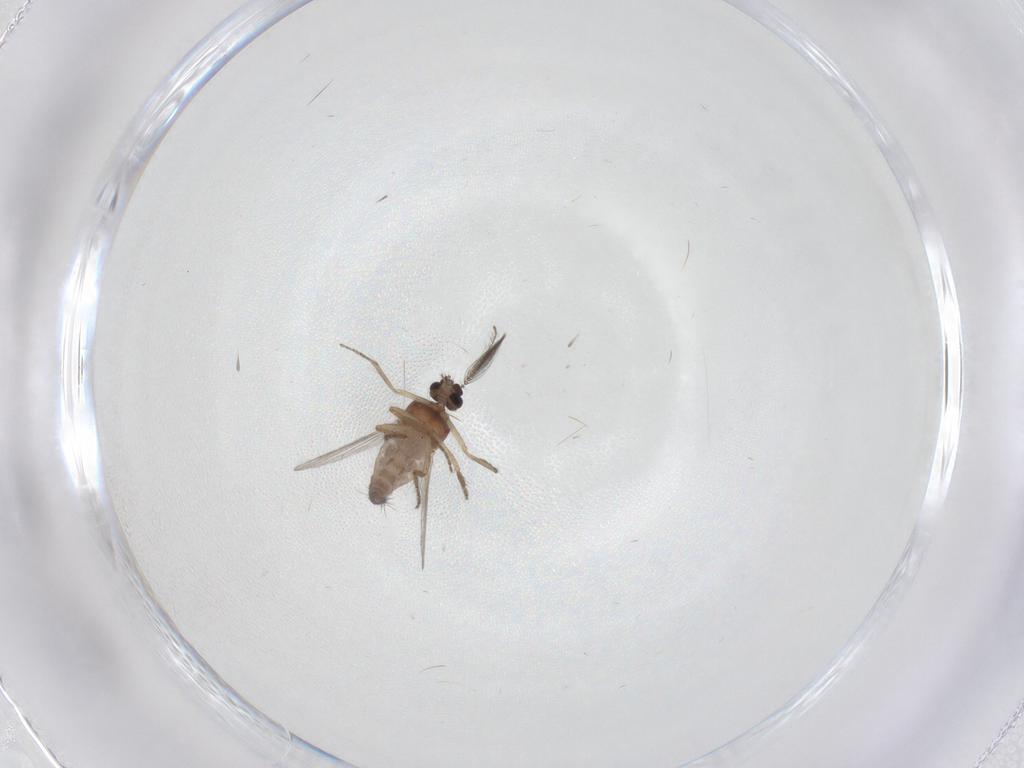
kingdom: Animalia
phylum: Arthropoda
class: Insecta
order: Diptera
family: Ceratopogonidae
